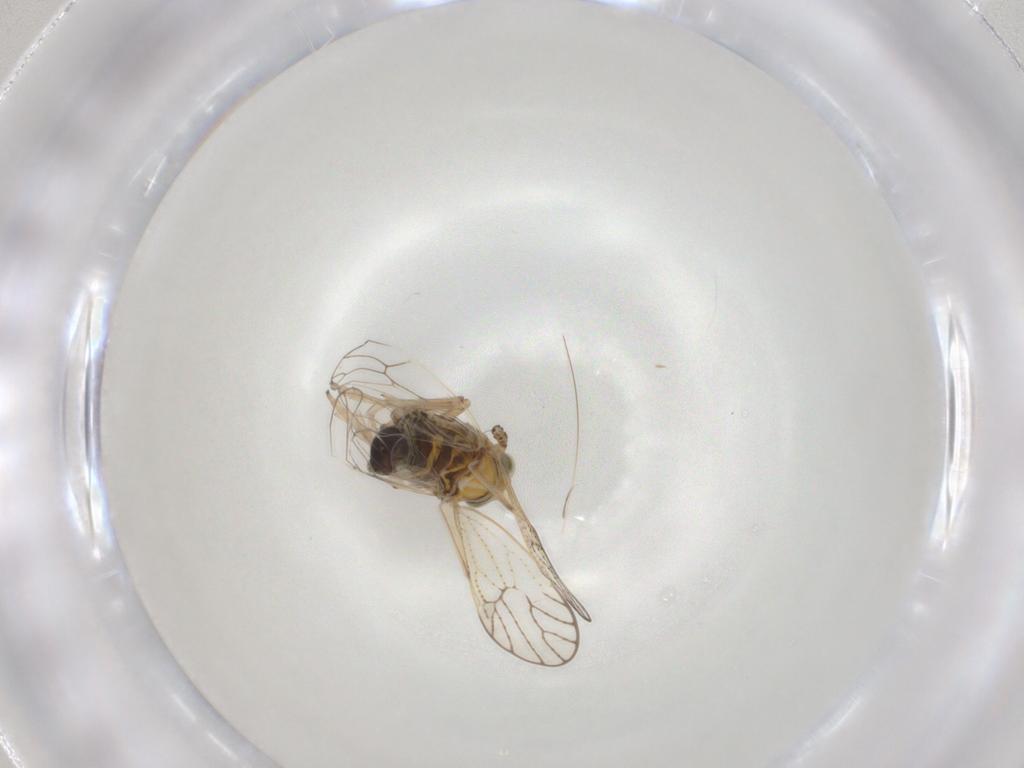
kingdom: Animalia
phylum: Arthropoda
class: Insecta
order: Hemiptera
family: Delphacidae
